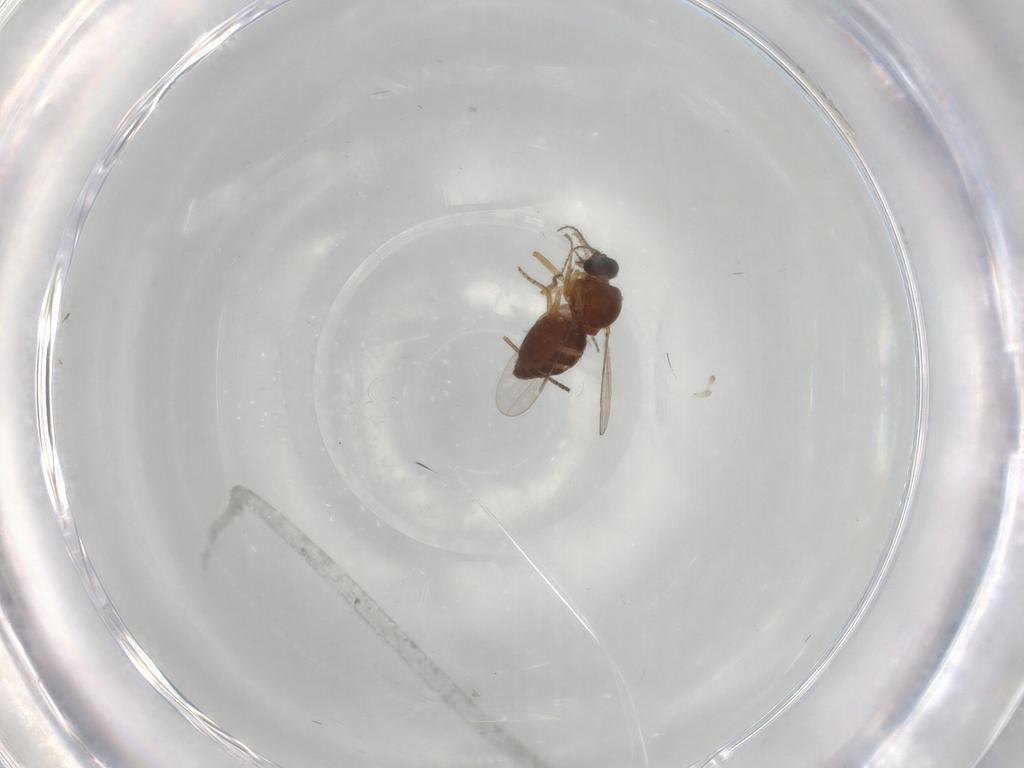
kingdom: Animalia
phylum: Arthropoda
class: Insecta
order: Diptera
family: Ceratopogonidae
